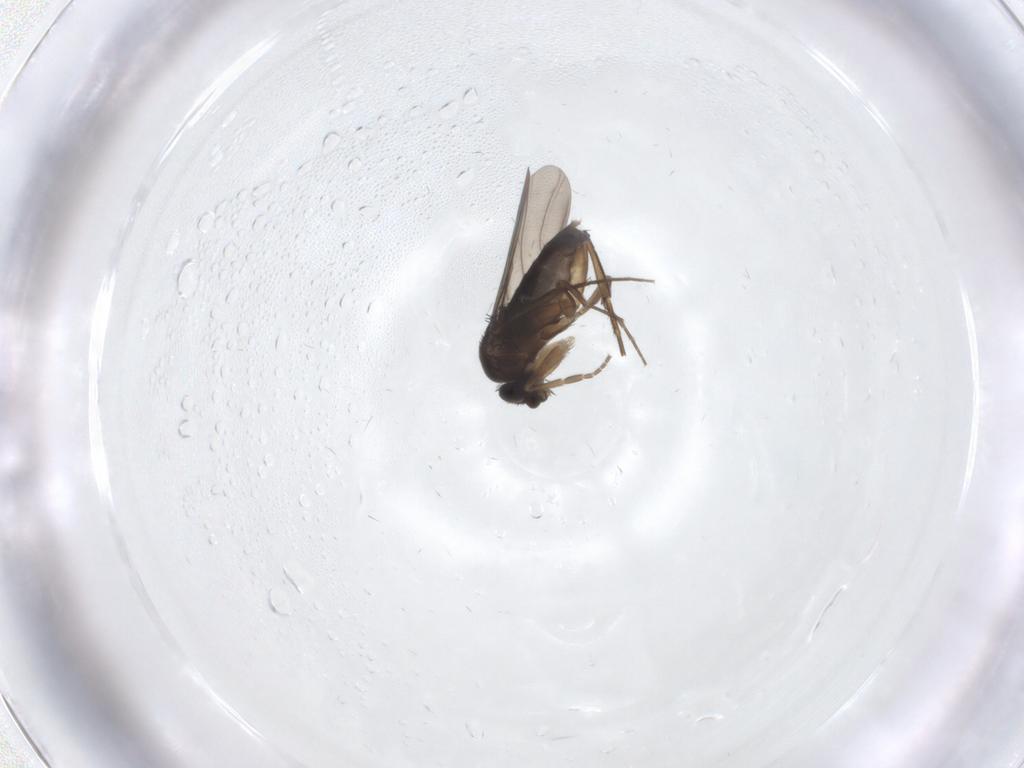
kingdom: Animalia
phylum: Arthropoda
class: Insecta
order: Diptera
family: Phoridae
